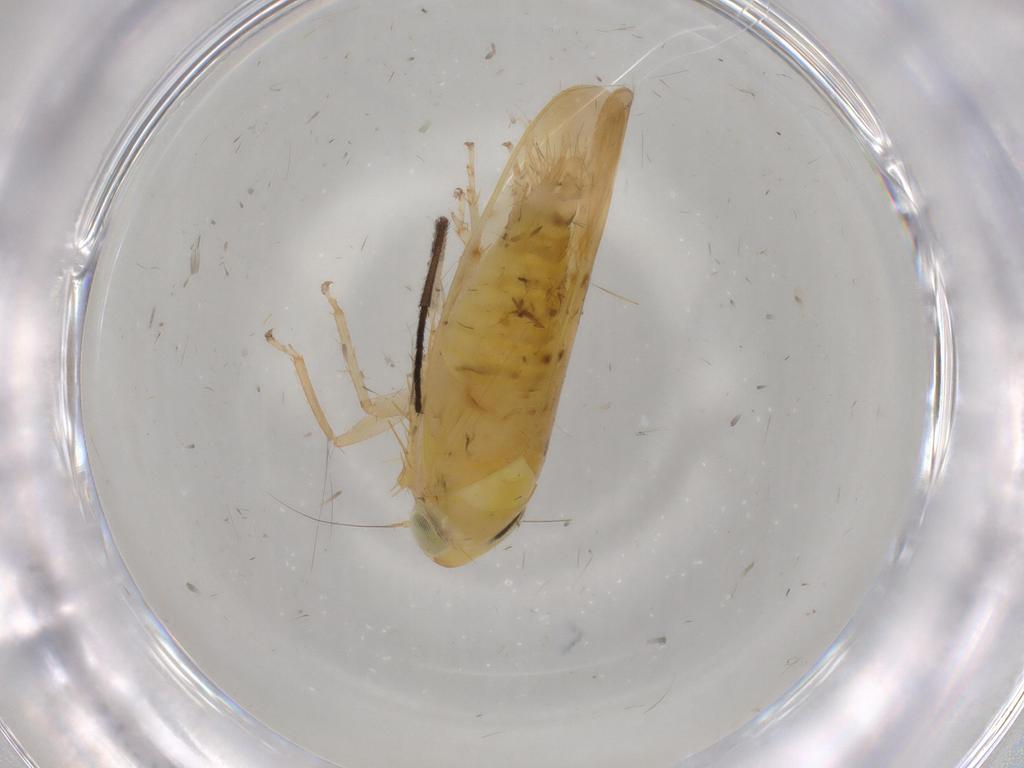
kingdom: Animalia
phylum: Arthropoda
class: Insecta
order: Hemiptera
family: Cicadellidae
